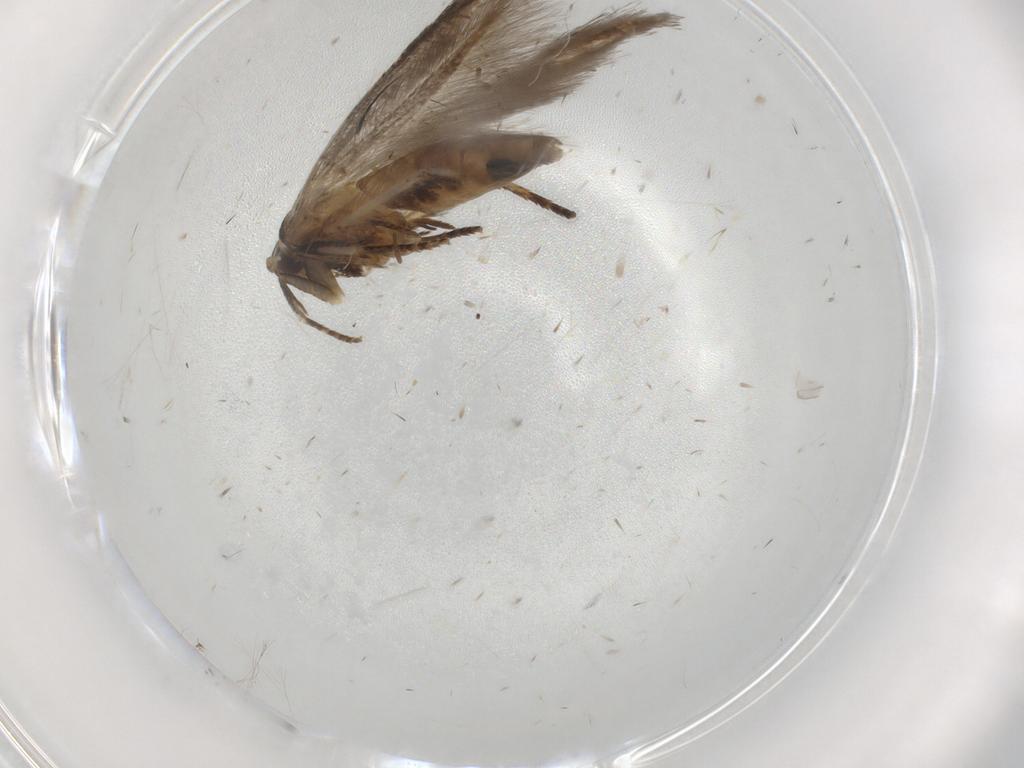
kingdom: Animalia
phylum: Arthropoda
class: Insecta
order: Lepidoptera
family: Cosmopterigidae
